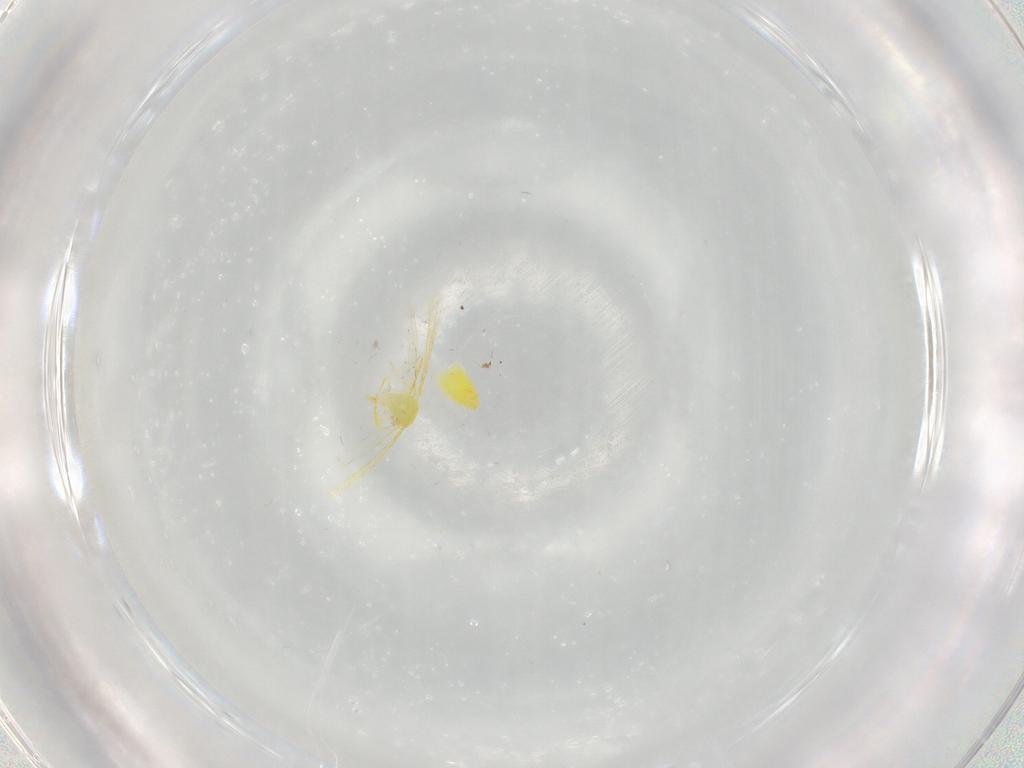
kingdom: Animalia
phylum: Arthropoda
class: Insecta
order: Hemiptera
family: Aleyrodidae
